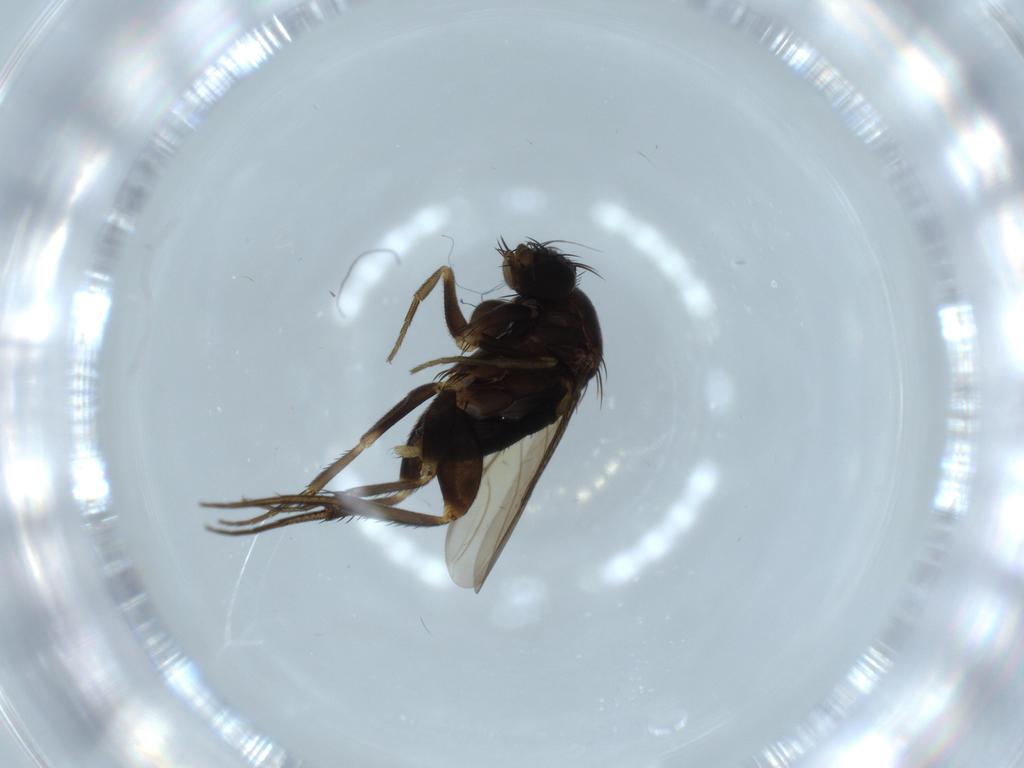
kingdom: Animalia
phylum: Arthropoda
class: Insecta
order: Diptera
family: Phoridae
